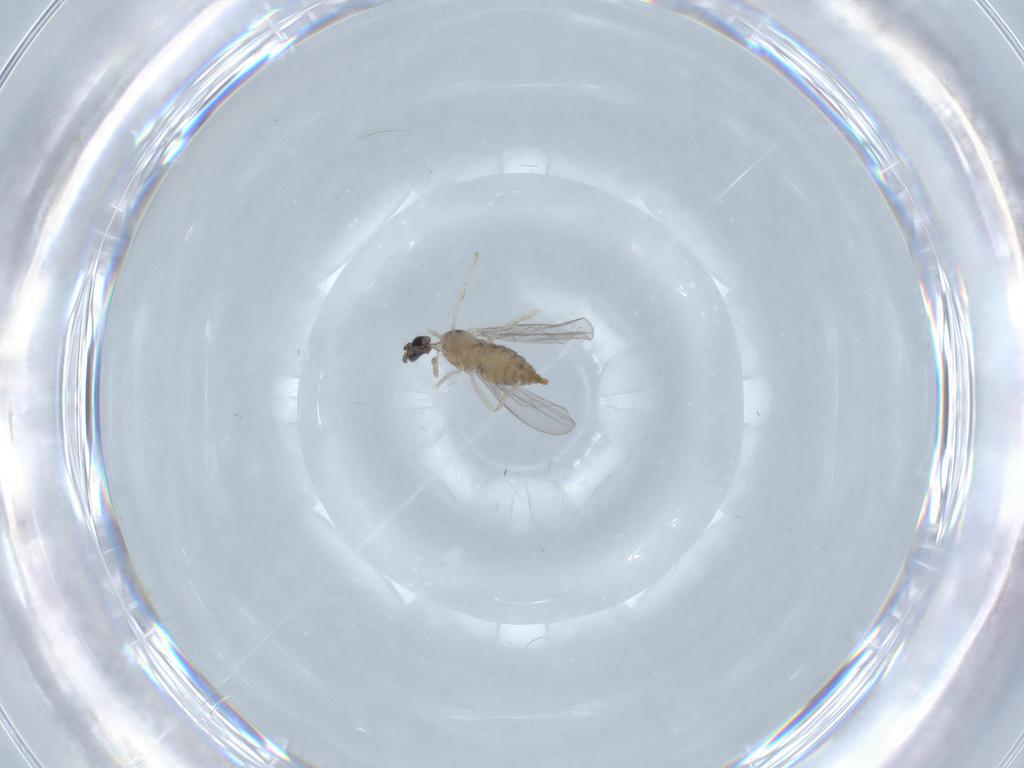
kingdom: Animalia
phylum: Arthropoda
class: Insecta
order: Diptera
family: Cecidomyiidae
